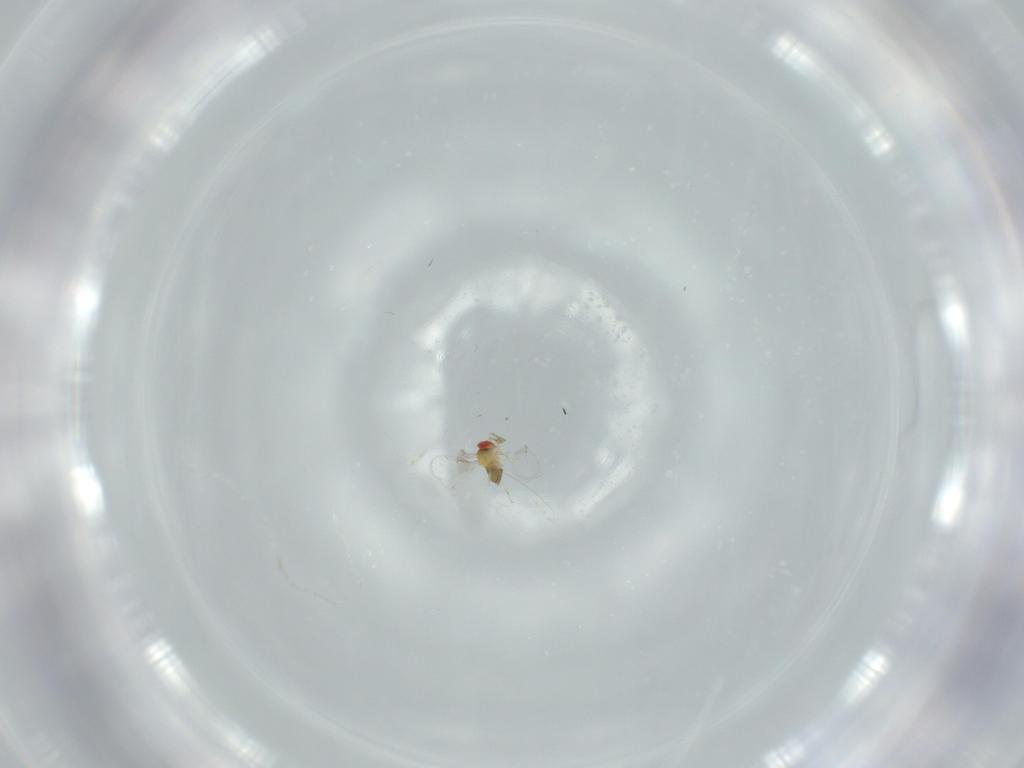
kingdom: Animalia
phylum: Arthropoda
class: Insecta
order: Hymenoptera
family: Trichogrammatidae
